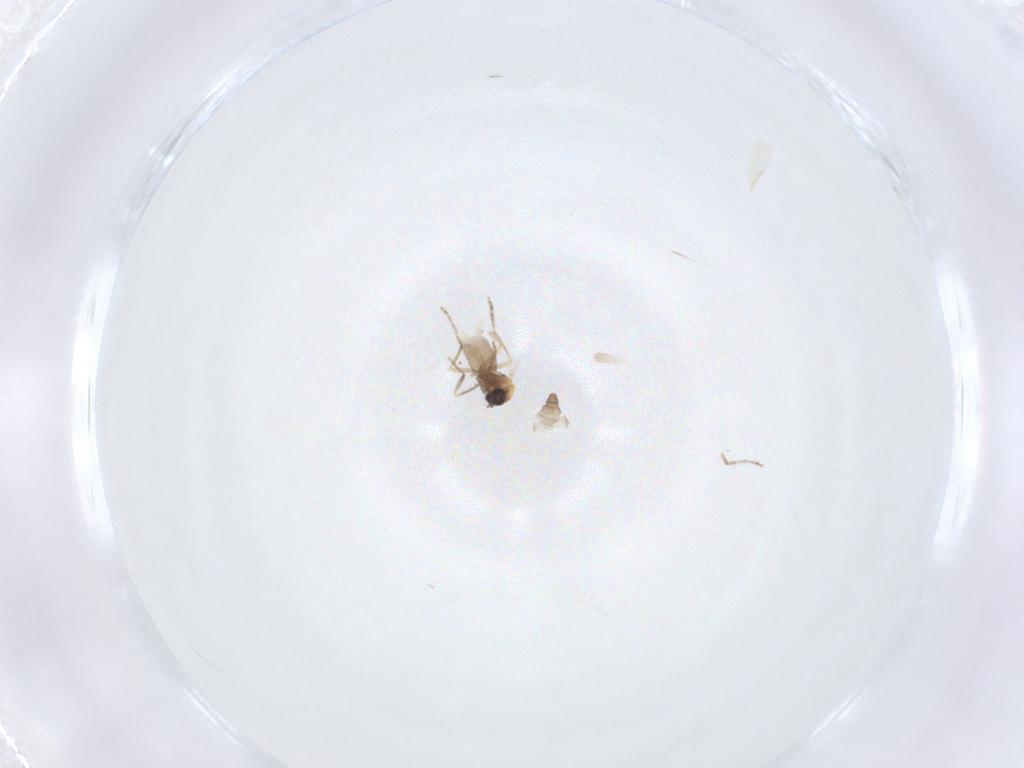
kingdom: Animalia
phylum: Arthropoda
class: Insecta
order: Diptera
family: Ceratopogonidae
